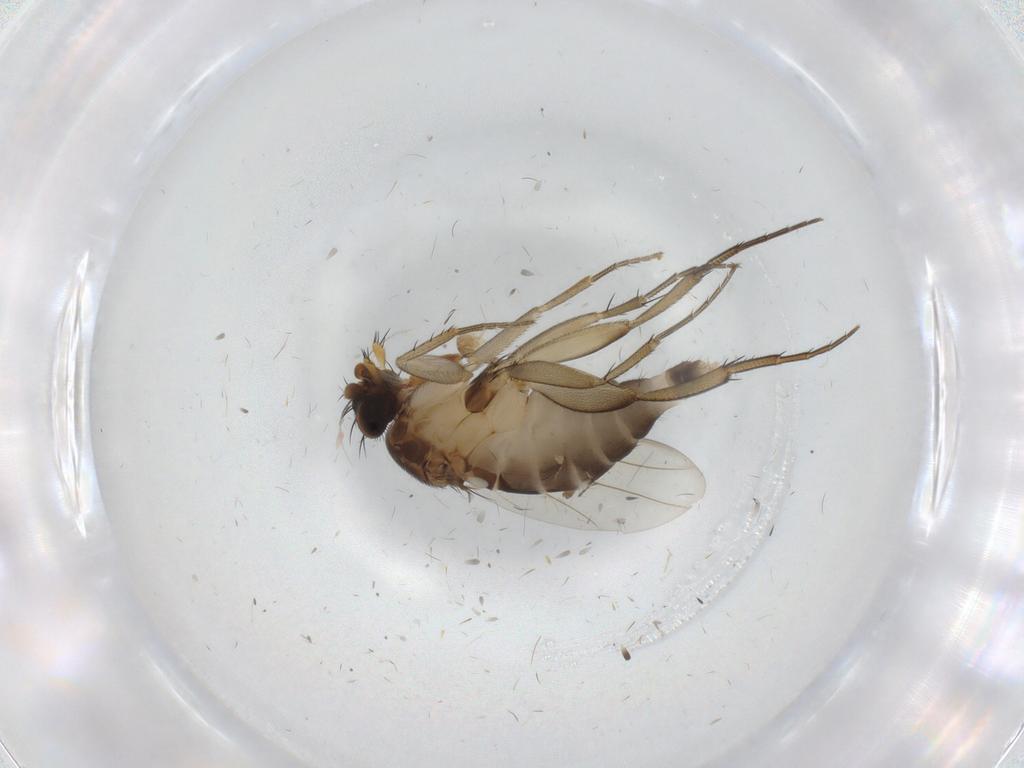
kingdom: Animalia
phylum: Arthropoda
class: Insecta
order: Diptera
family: Phoridae
